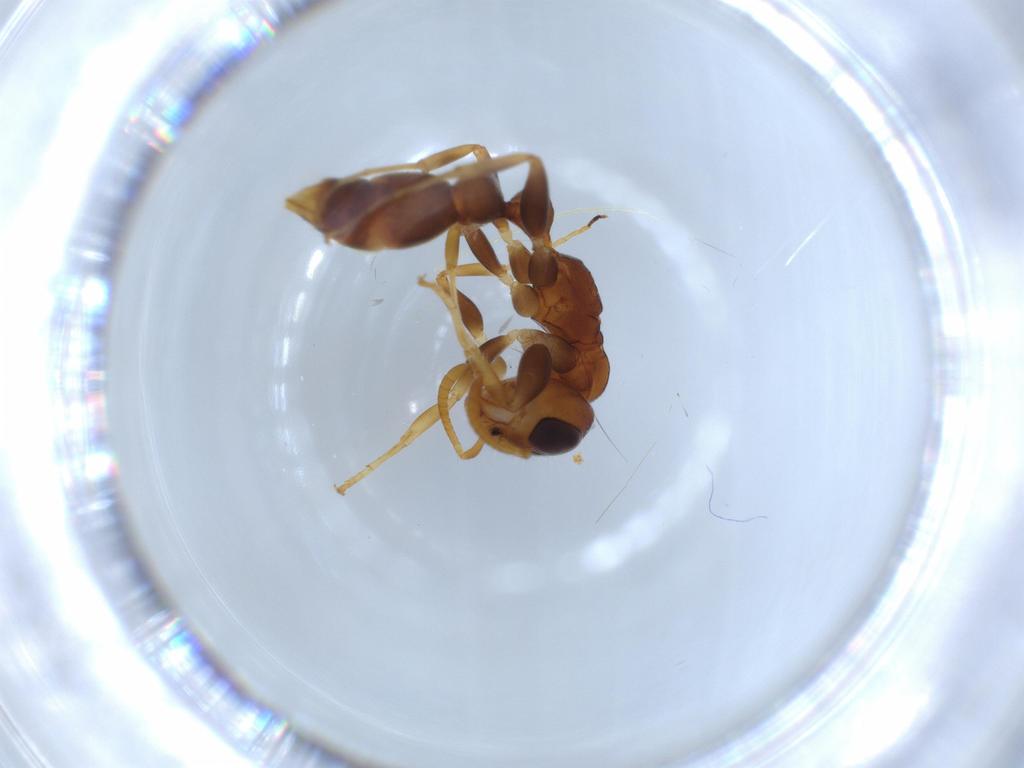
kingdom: Animalia
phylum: Arthropoda
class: Insecta
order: Hymenoptera
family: Formicidae
